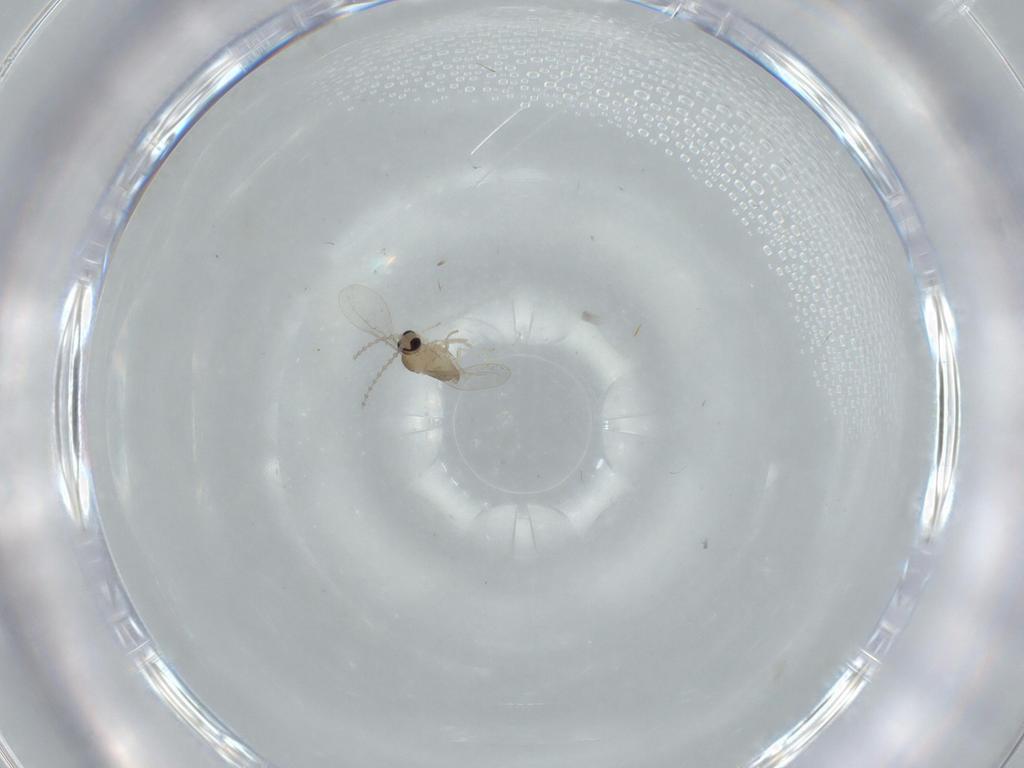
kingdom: Animalia
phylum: Arthropoda
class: Insecta
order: Diptera
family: Cecidomyiidae
